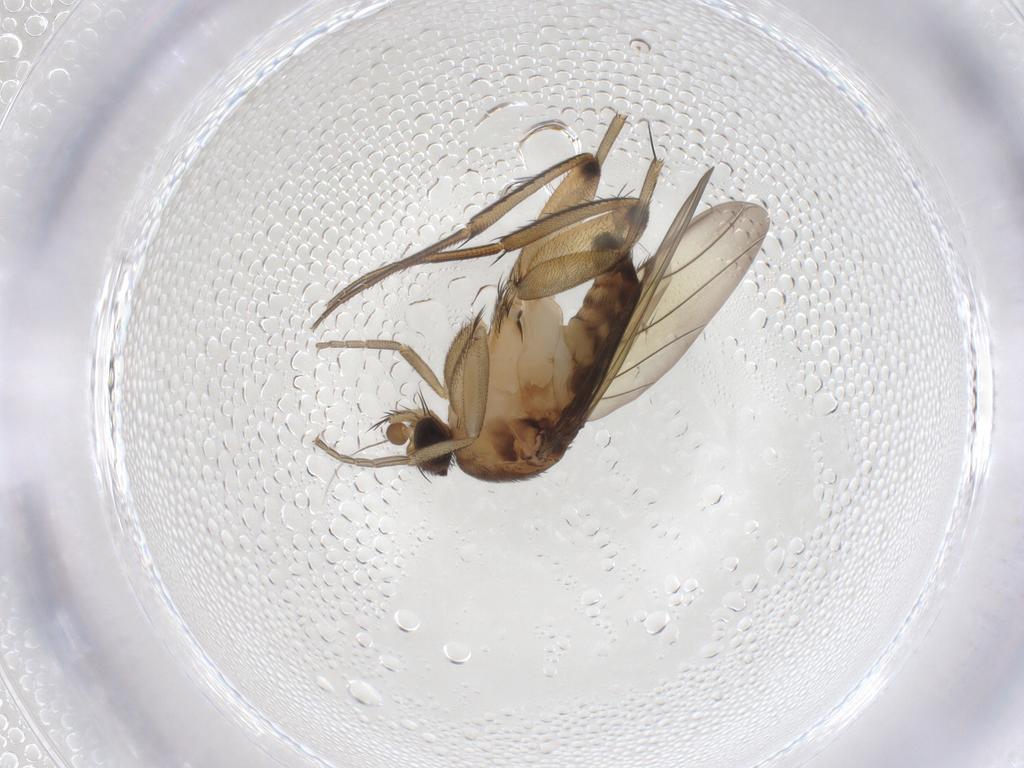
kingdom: Animalia
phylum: Arthropoda
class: Insecta
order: Diptera
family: Phoridae
